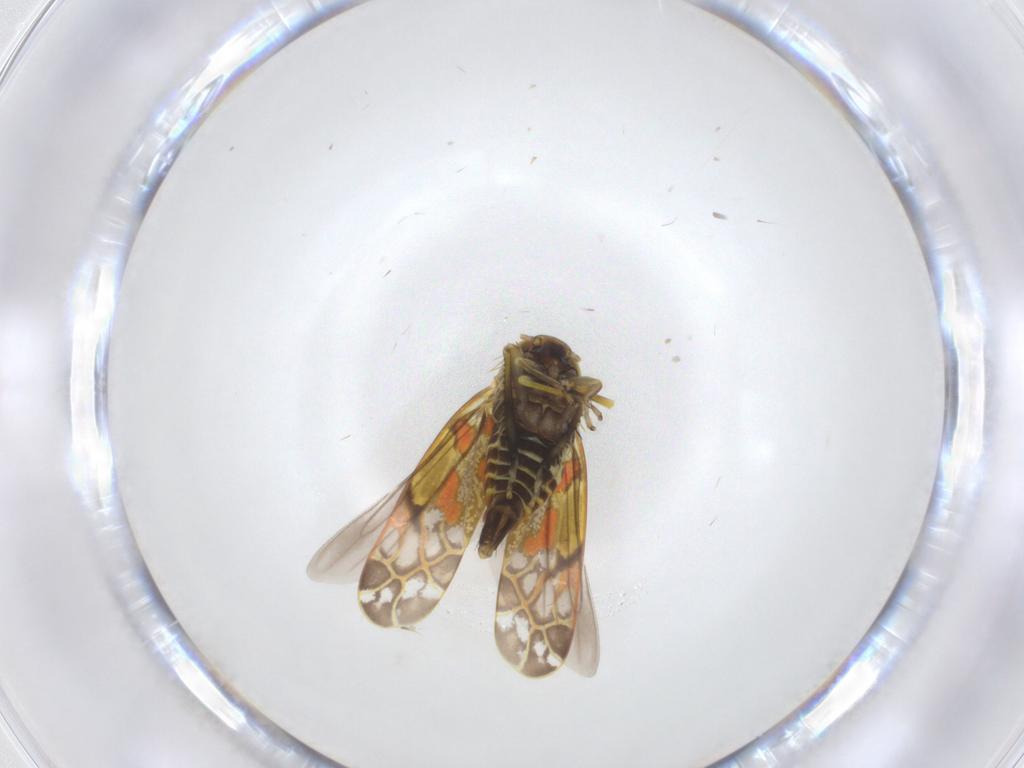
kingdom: Animalia
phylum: Arthropoda
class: Insecta
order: Hemiptera
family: Cicadellidae
